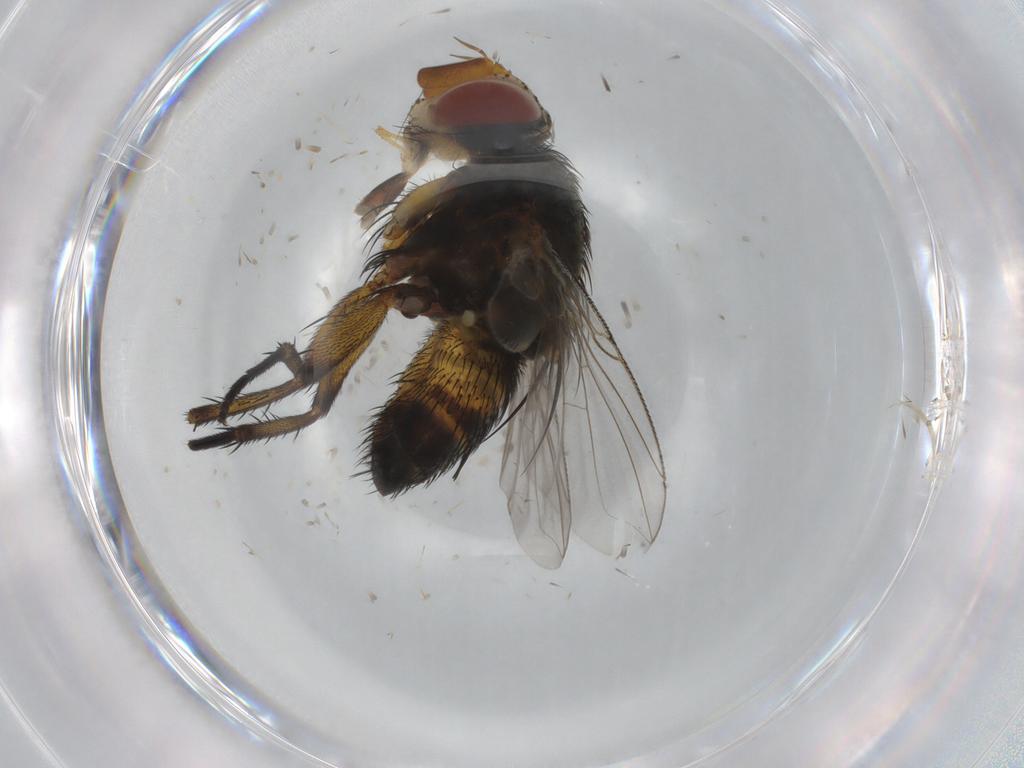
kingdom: Animalia
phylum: Arthropoda
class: Insecta
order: Diptera
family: Tachinidae
